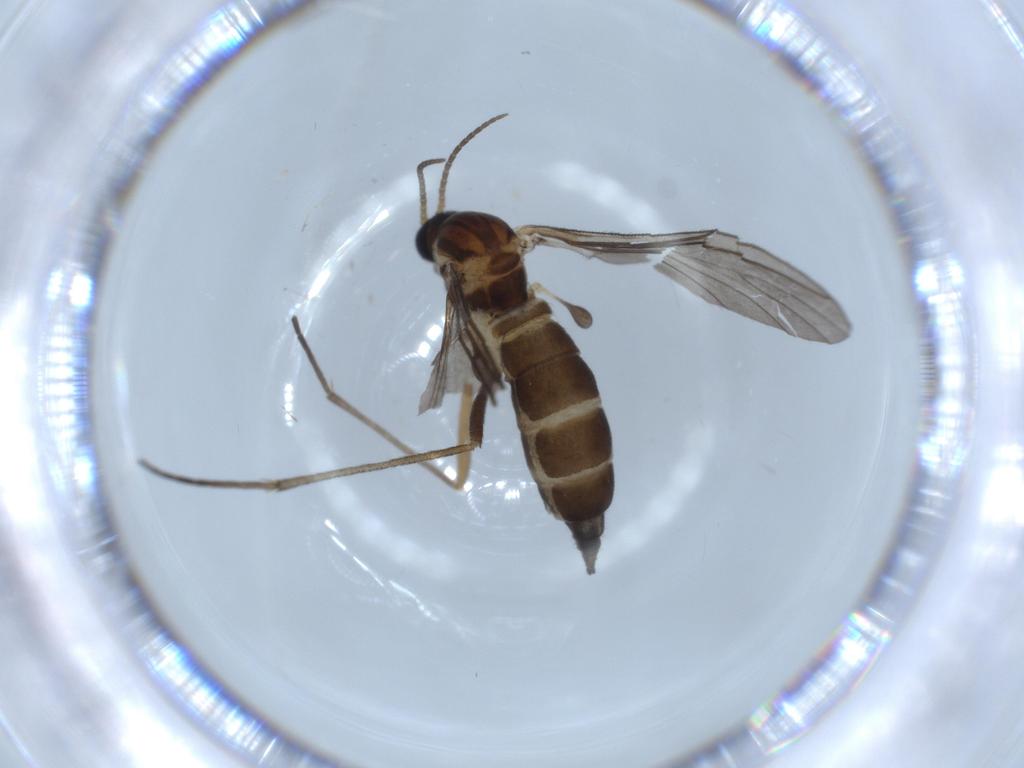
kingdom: Animalia
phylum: Arthropoda
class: Insecta
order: Diptera
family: Sciaridae
